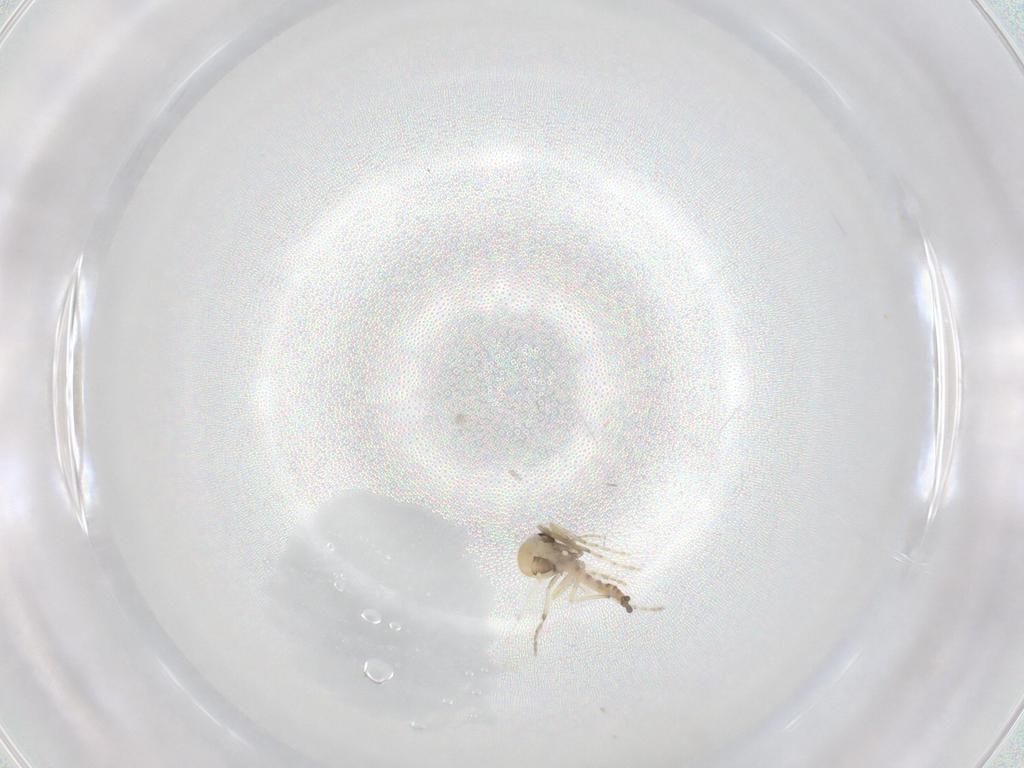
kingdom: Animalia
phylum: Arthropoda
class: Insecta
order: Diptera
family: Ceratopogonidae
